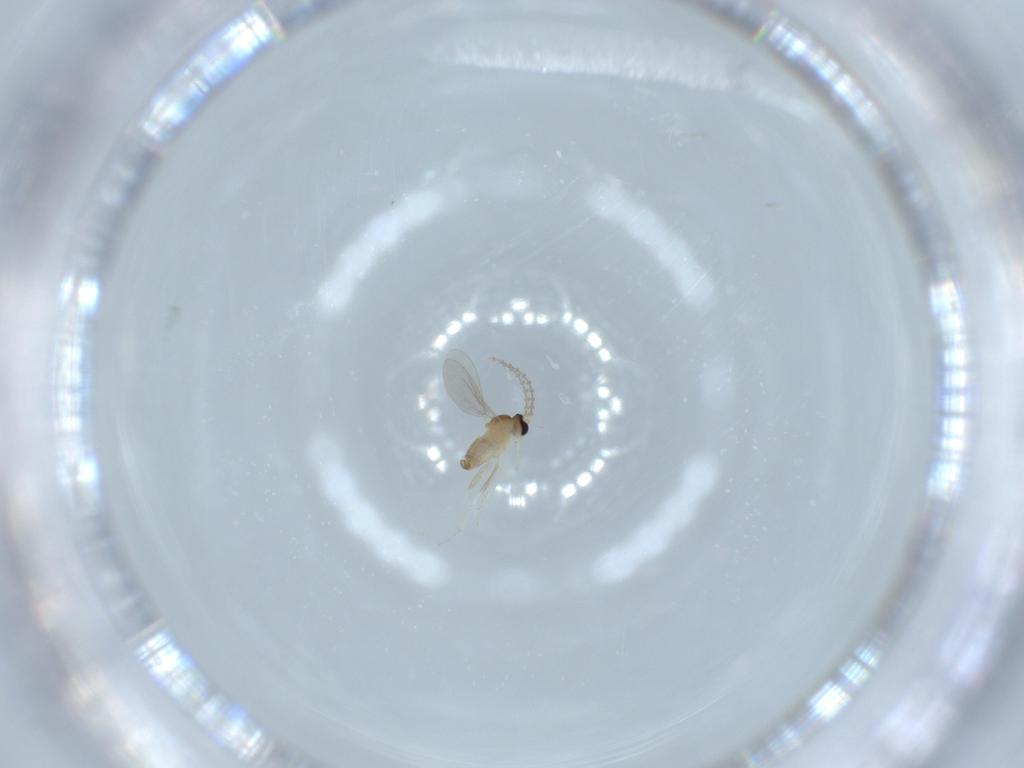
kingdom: Animalia
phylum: Arthropoda
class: Insecta
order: Diptera
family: Cecidomyiidae
